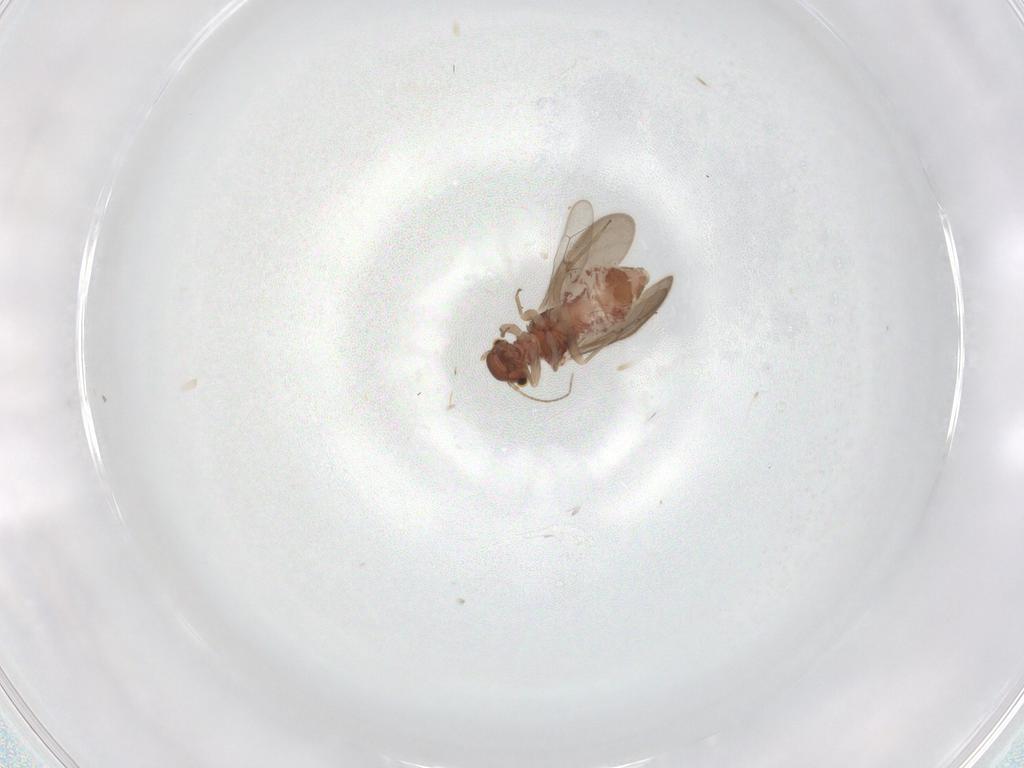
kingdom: Animalia
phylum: Arthropoda
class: Insecta
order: Psocodea
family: Archipsocidae
